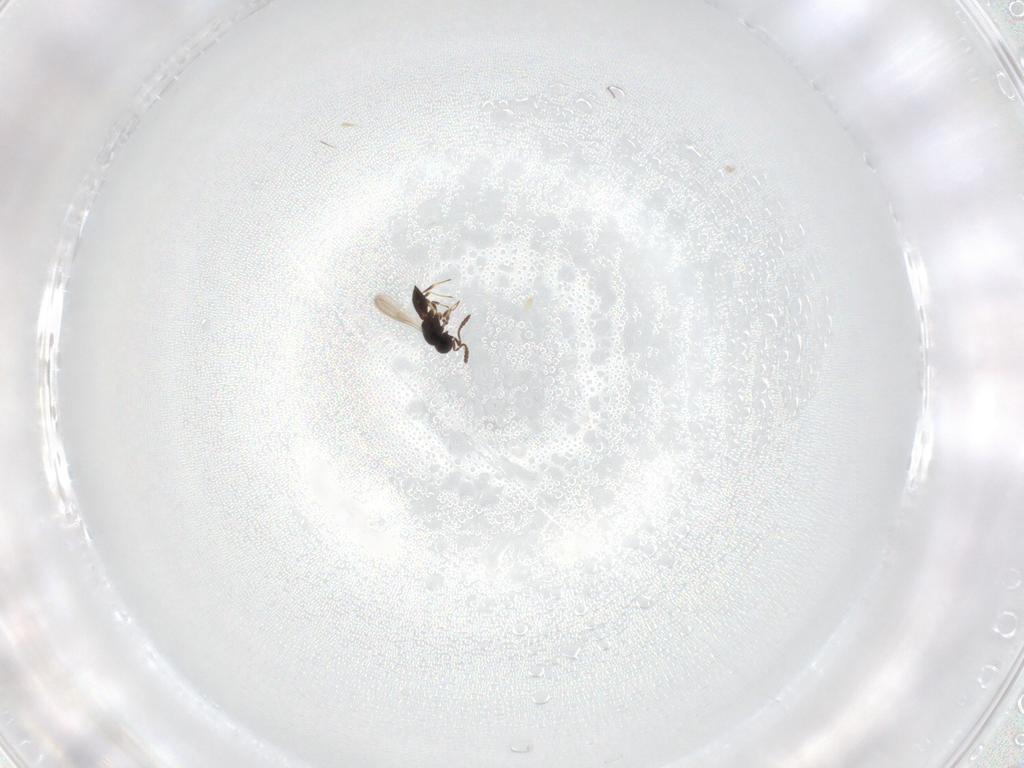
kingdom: Animalia
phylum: Arthropoda
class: Insecta
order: Hymenoptera
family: Scelionidae
